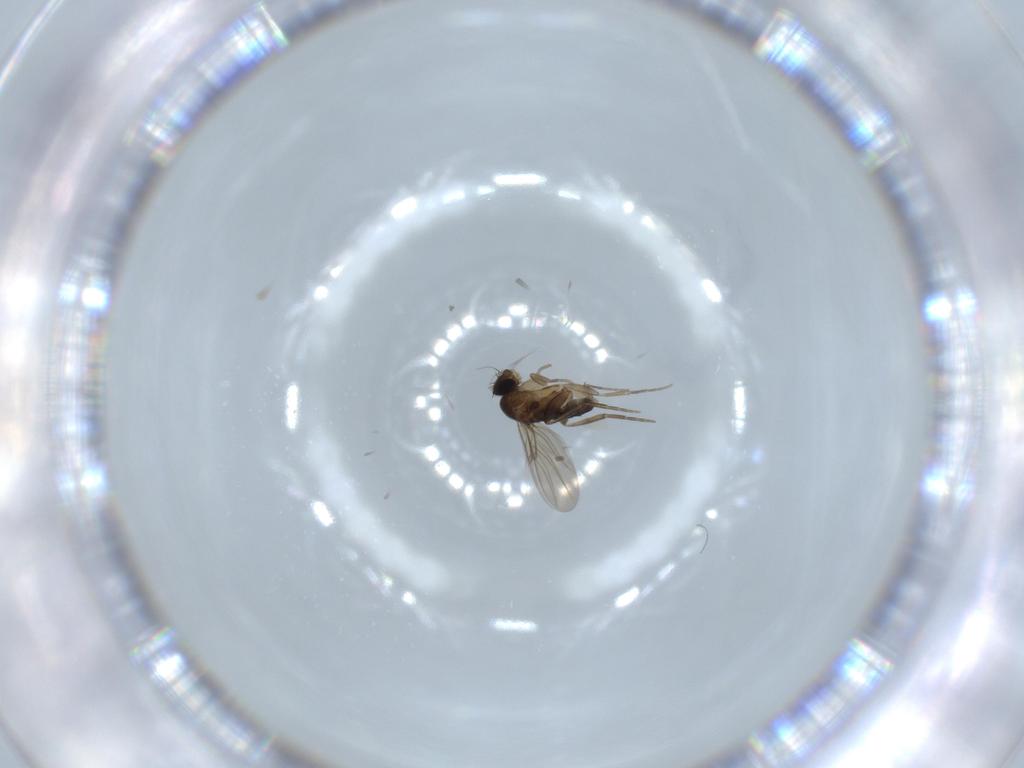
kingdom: Animalia
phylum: Arthropoda
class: Insecta
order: Diptera
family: Phoridae
